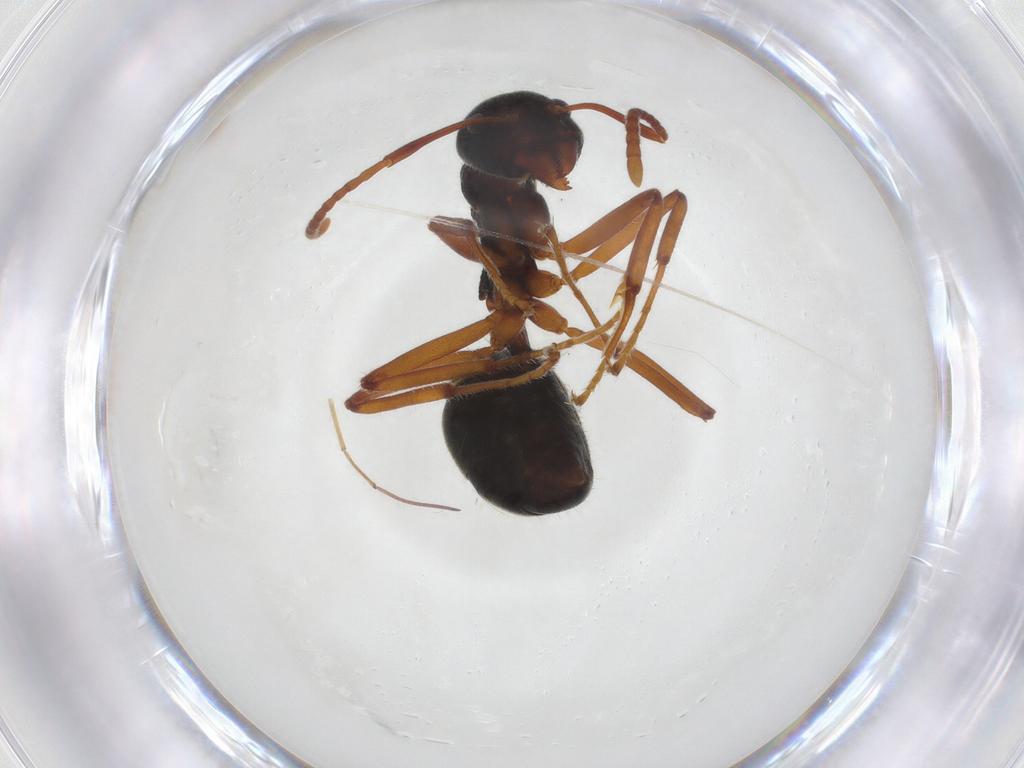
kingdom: Animalia
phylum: Arthropoda
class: Insecta
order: Hymenoptera
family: Formicidae
